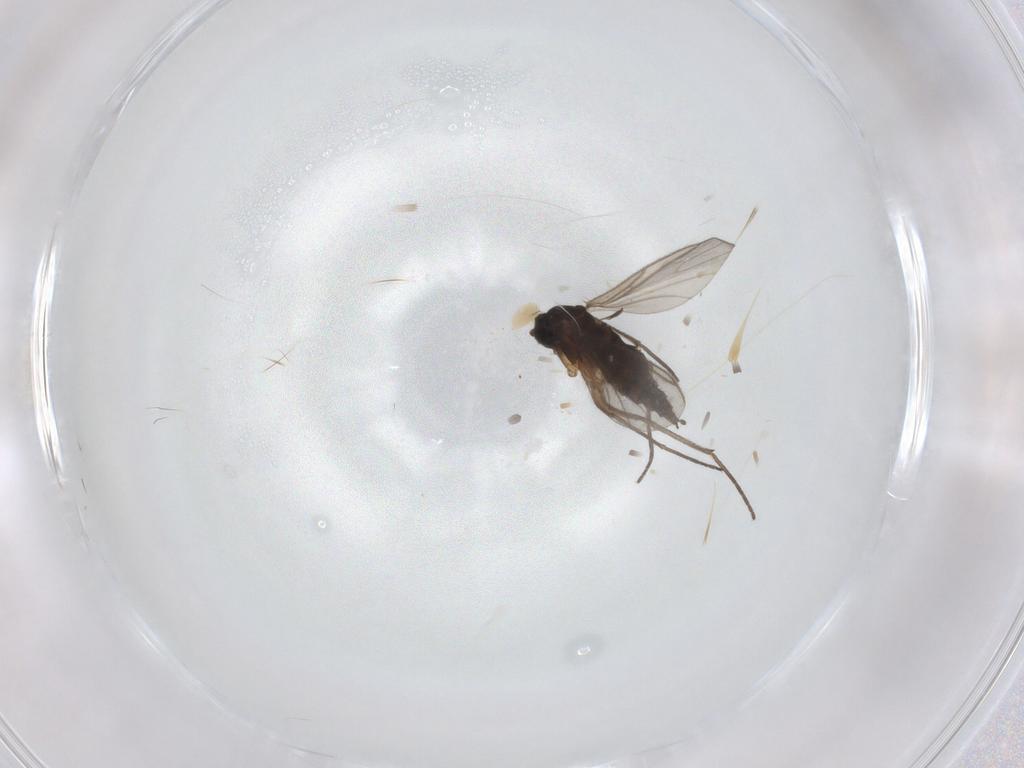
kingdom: Animalia
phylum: Arthropoda
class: Insecta
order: Diptera
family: Sciaridae
